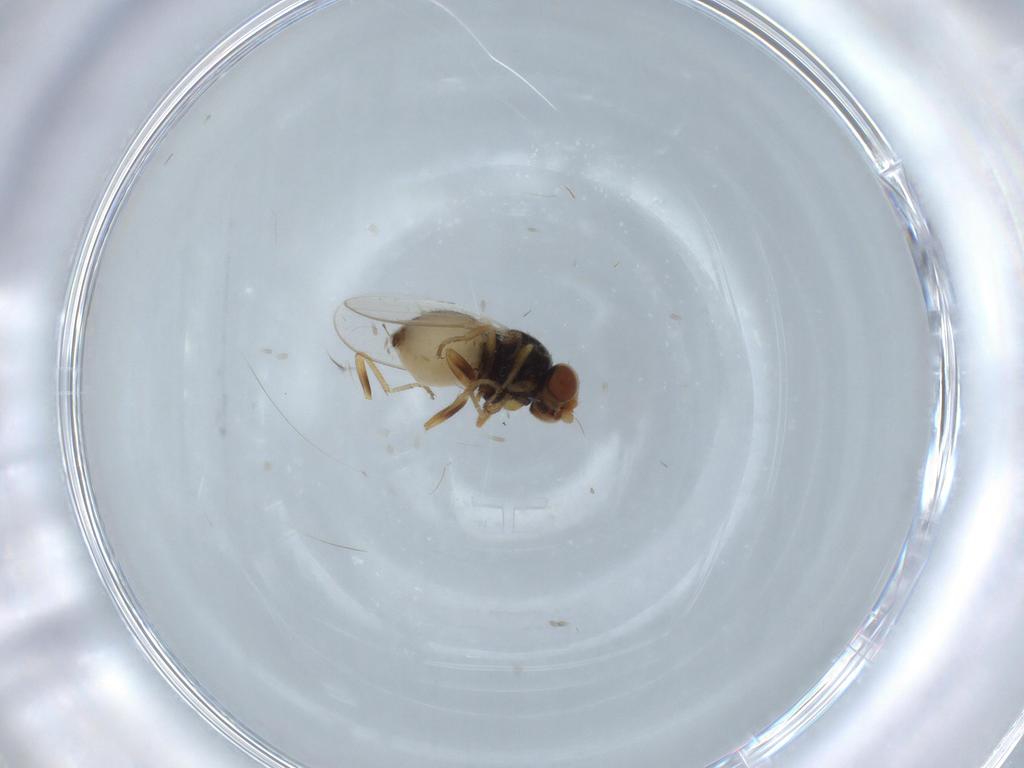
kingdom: Animalia
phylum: Arthropoda
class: Insecta
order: Diptera
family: Chloropidae
